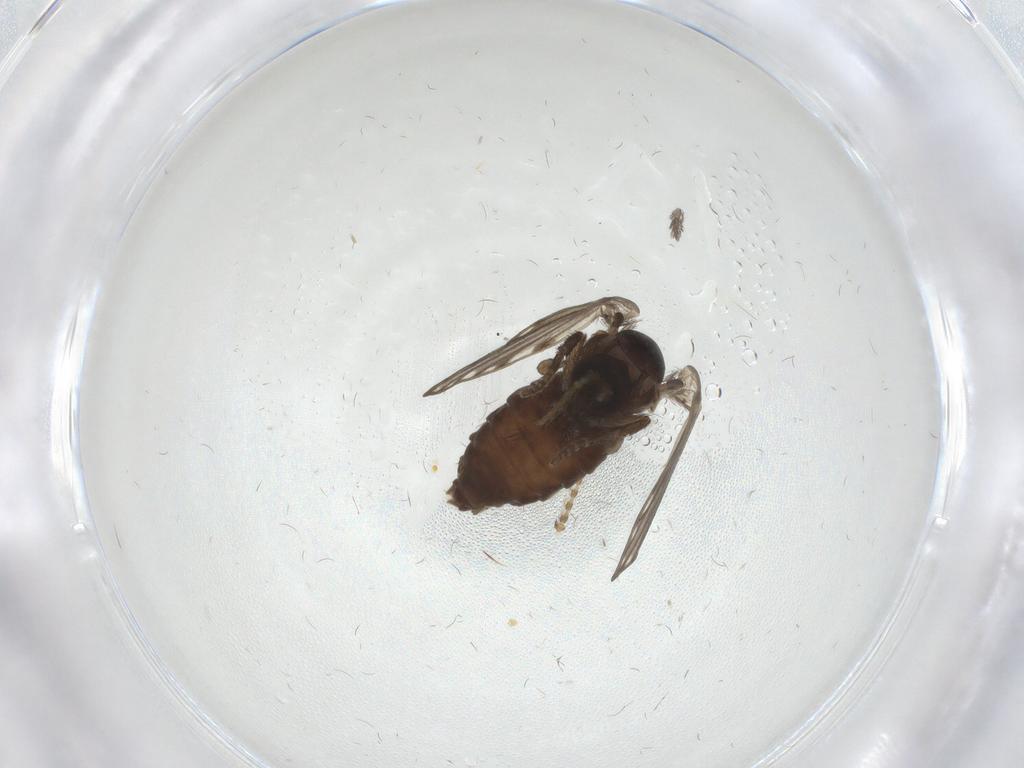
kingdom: Animalia
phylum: Arthropoda
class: Insecta
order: Diptera
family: Psychodidae
